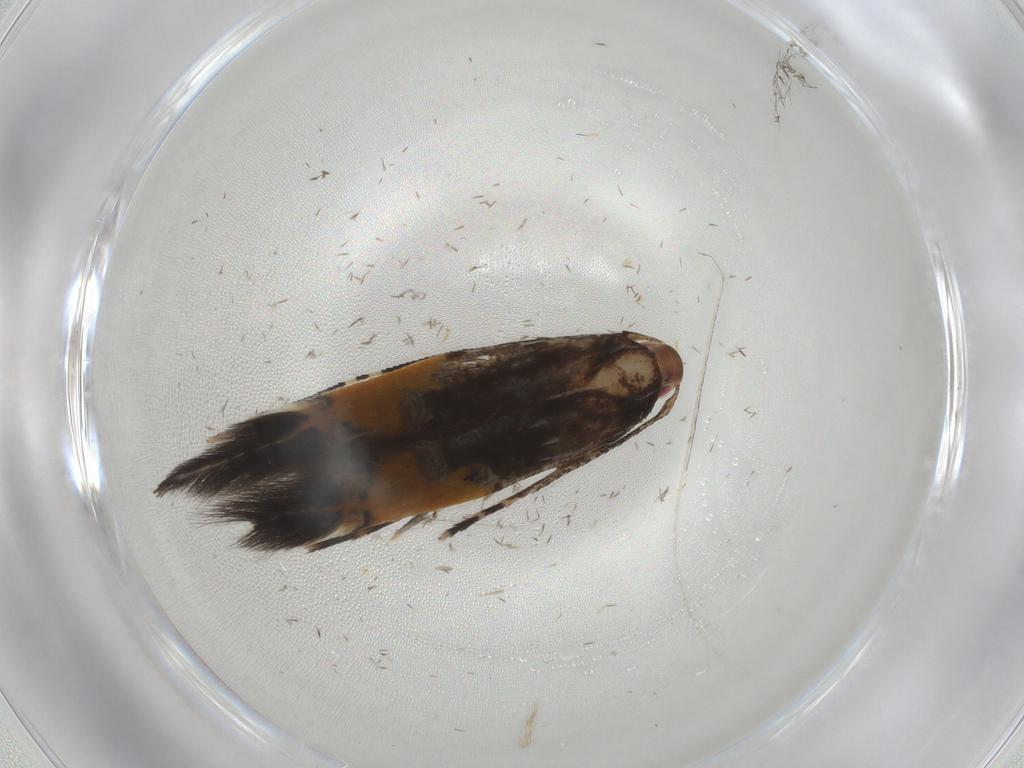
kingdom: Animalia
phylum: Arthropoda
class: Insecta
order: Lepidoptera
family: Cosmopterigidae
